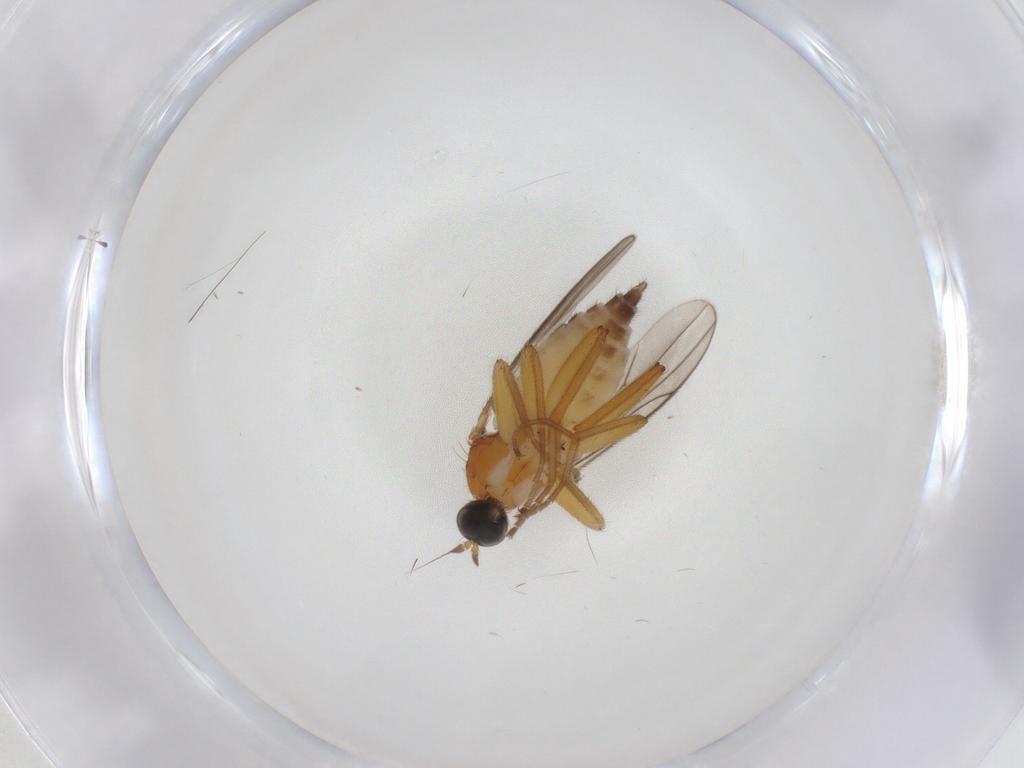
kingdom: Animalia
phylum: Arthropoda
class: Insecta
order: Diptera
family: Hybotidae
